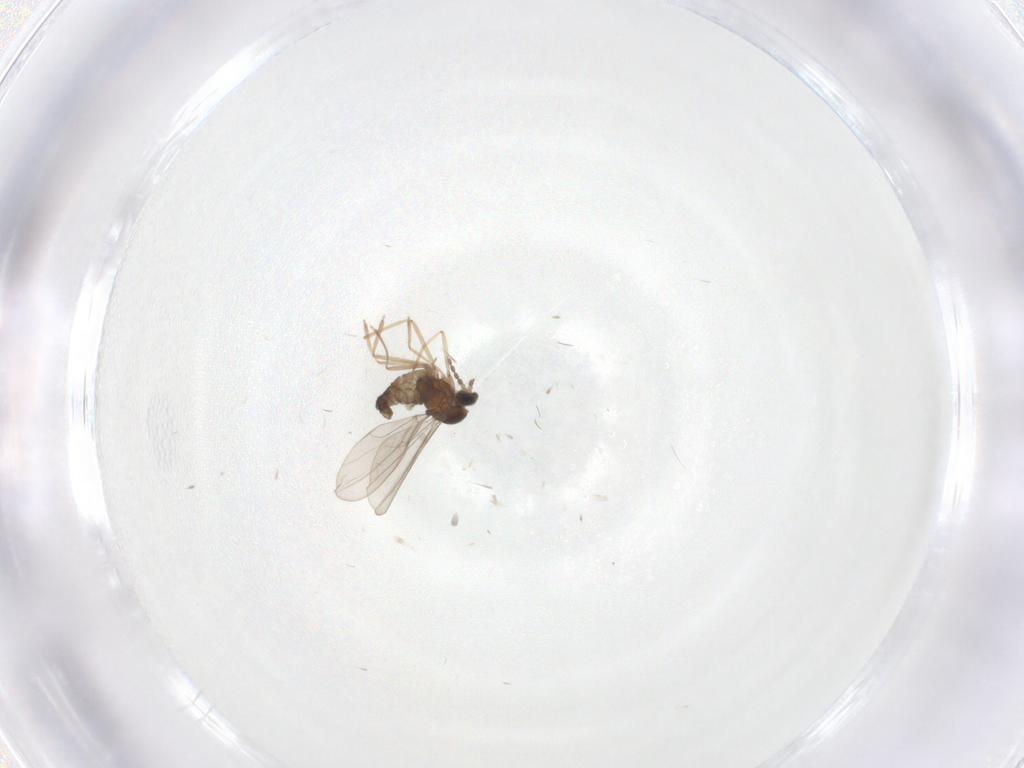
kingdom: Animalia
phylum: Arthropoda
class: Insecta
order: Diptera
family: Cecidomyiidae
